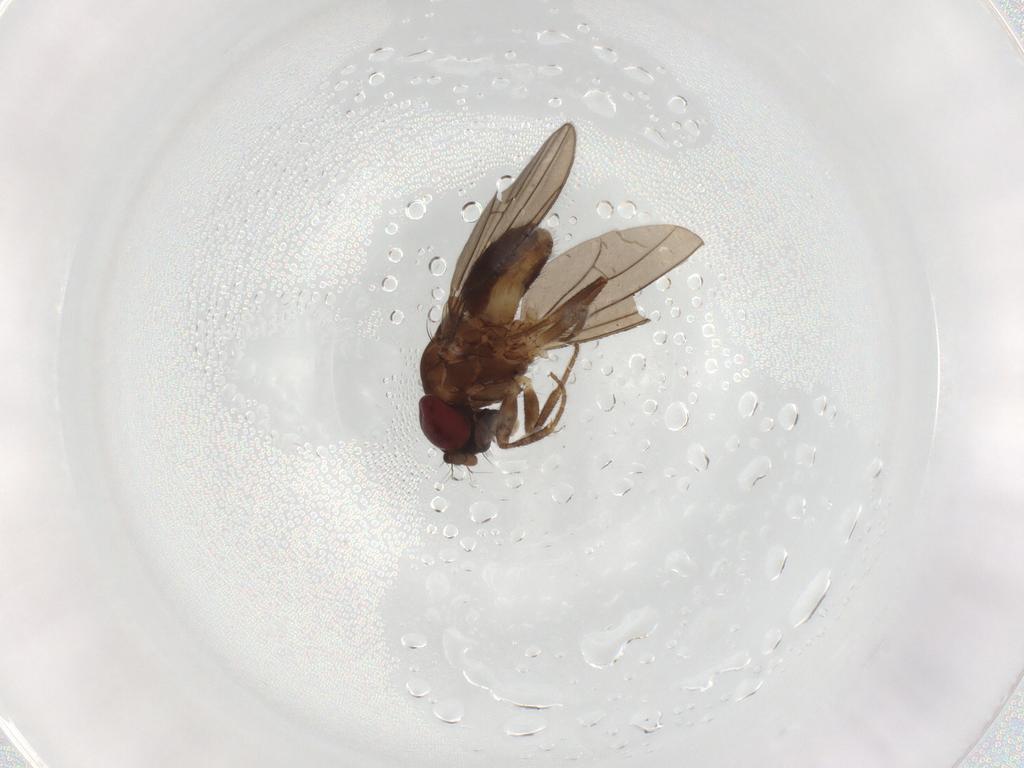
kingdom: Animalia
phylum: Arthropoda
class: Insecta
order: Diptera
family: Drosophilidae
